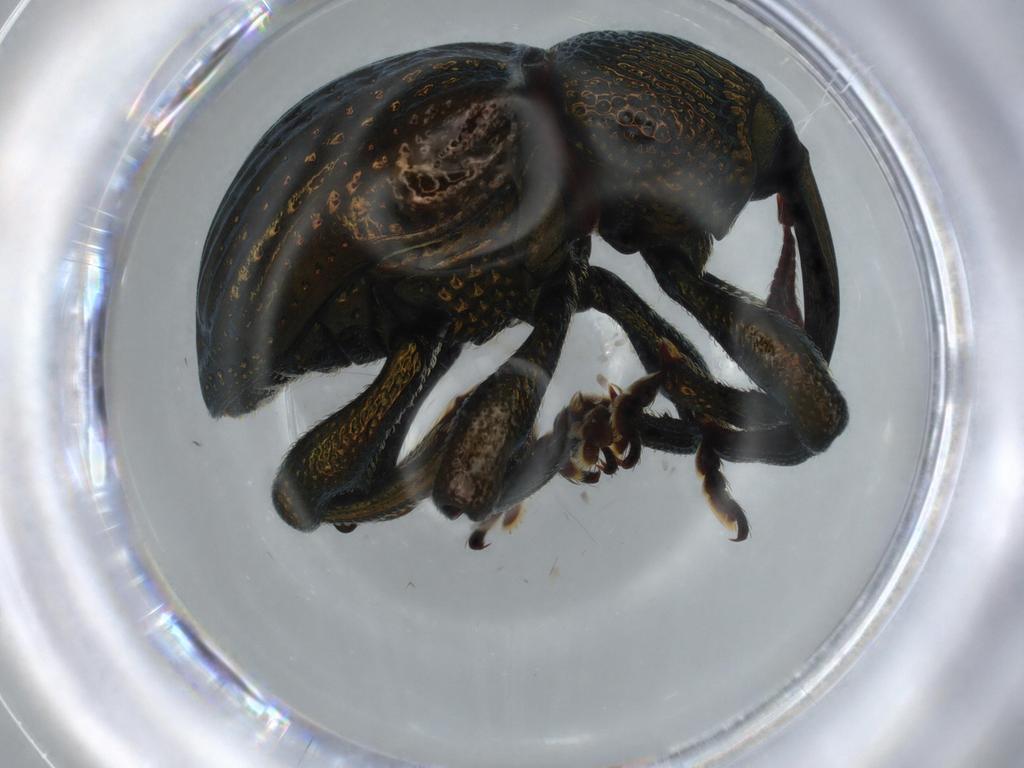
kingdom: Animalia
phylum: Arthropoda
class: Insecta
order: Coleoptera
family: Curculionidae
